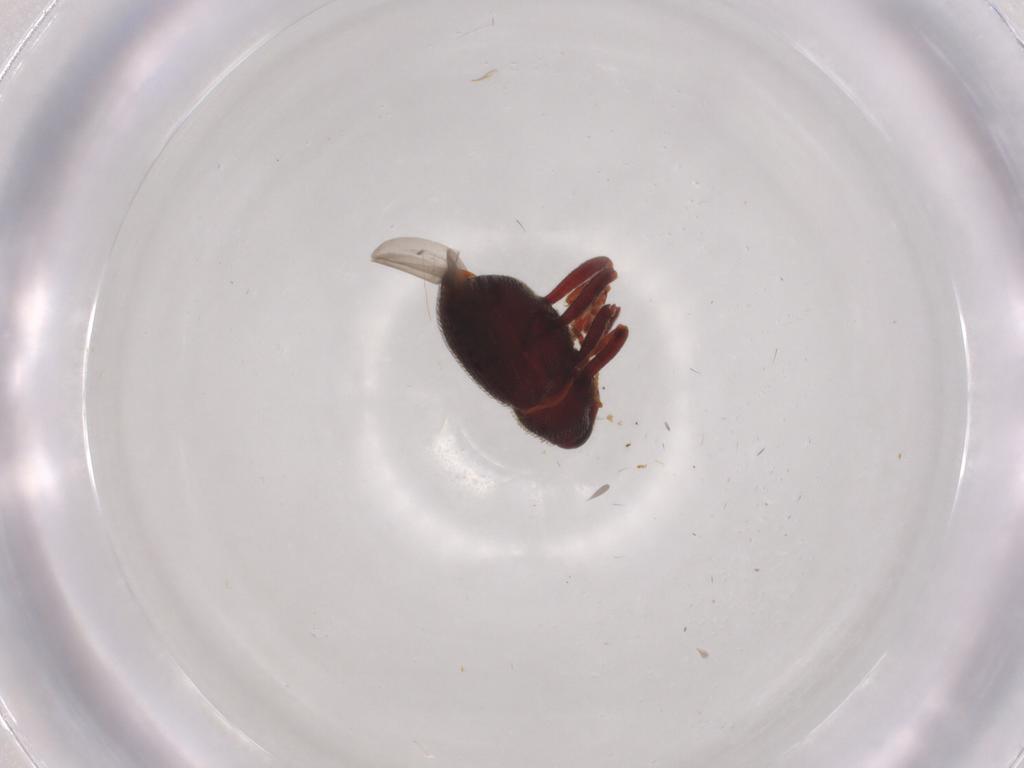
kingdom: Animalia
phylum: Arthropoda
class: Insecta
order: Coleoptera
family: Curculionidae
